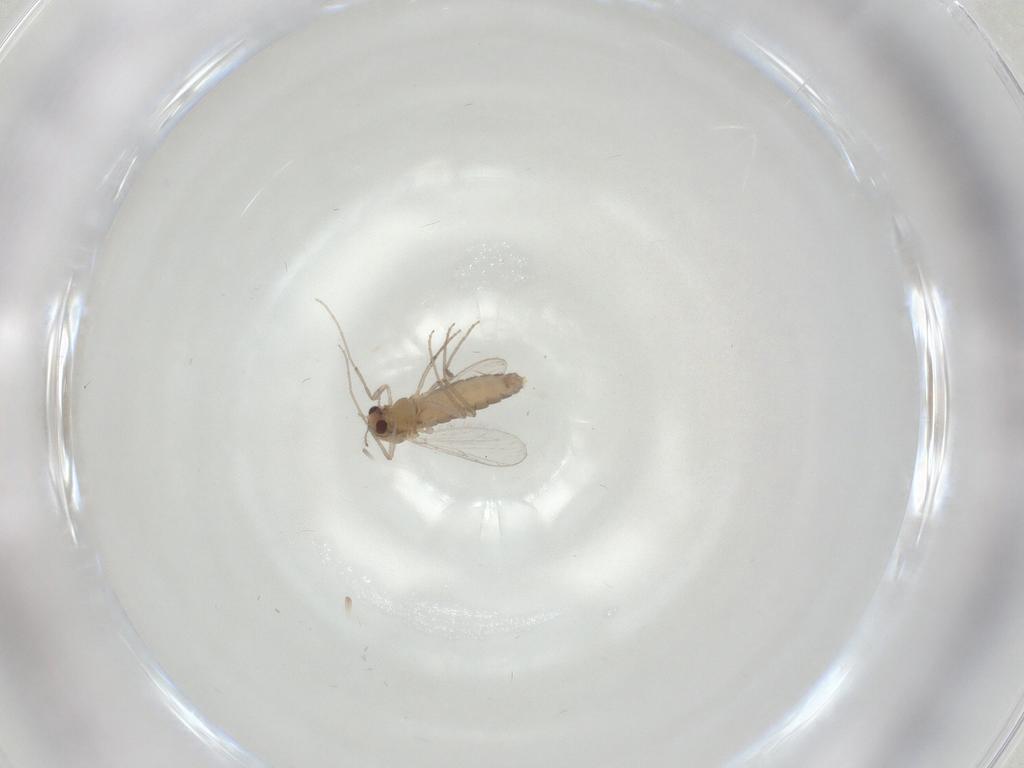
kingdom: Animalia
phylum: Arthropoda
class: Insecta
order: Diptera
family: Chironomidae
